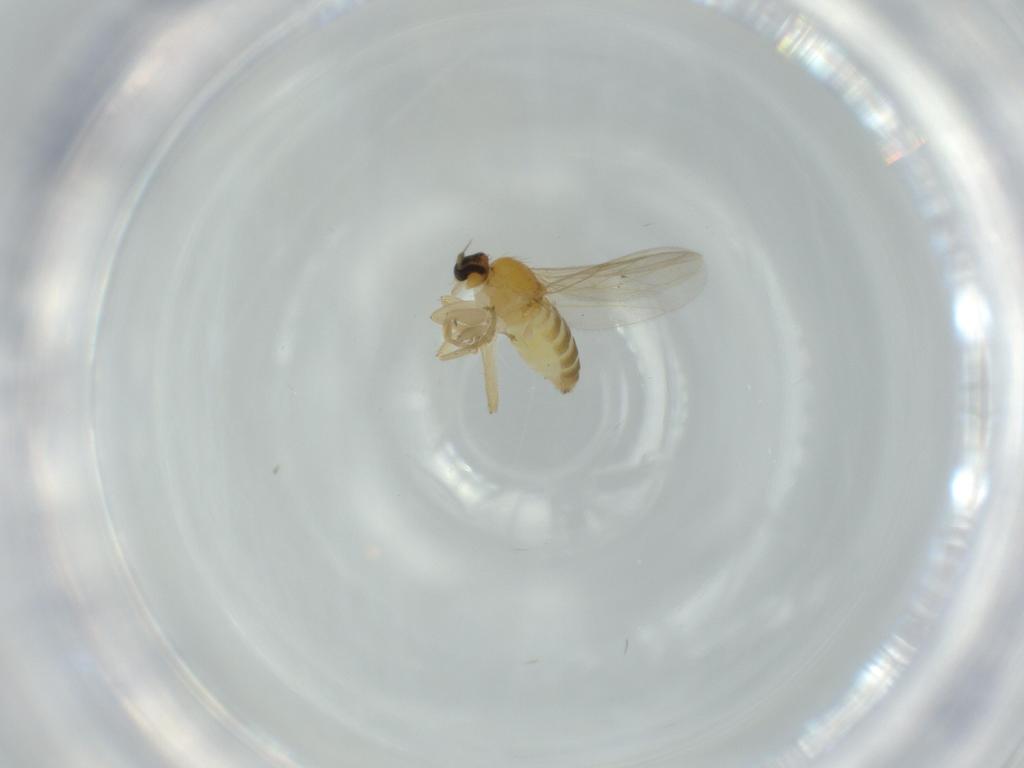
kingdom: Animalia
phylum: Arthropoda
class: Insecta
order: Diptera
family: Hybotidae
